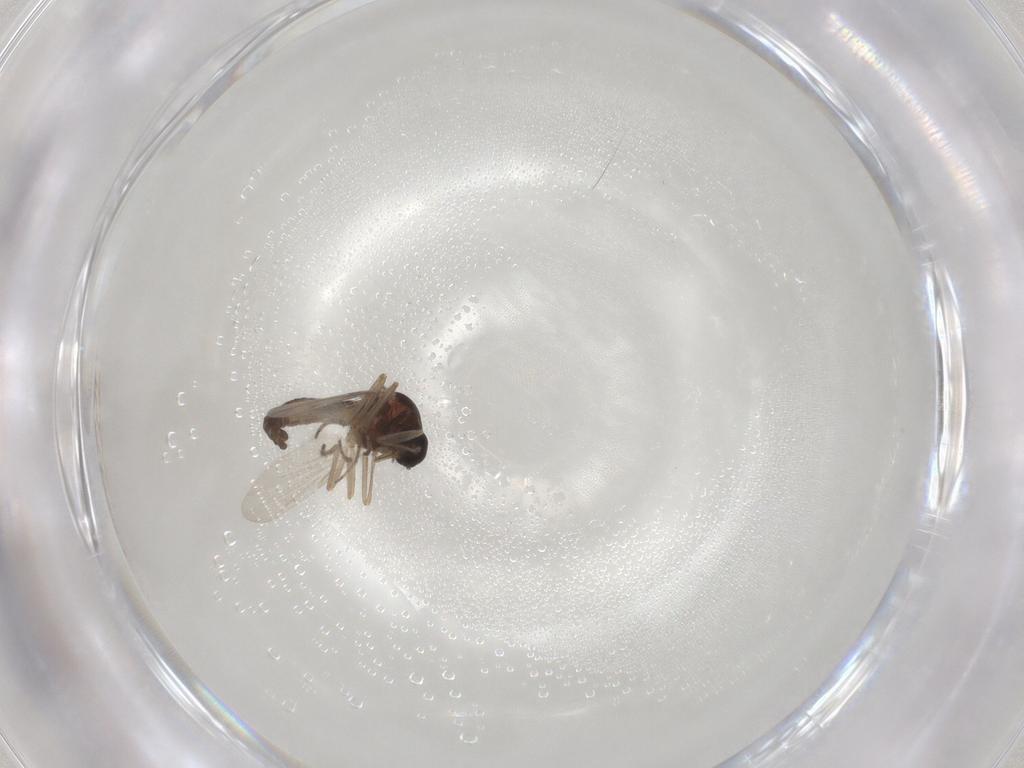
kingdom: Animalia
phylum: Arthropoda
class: Insecta
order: Diptera
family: Ceratopogonidae
